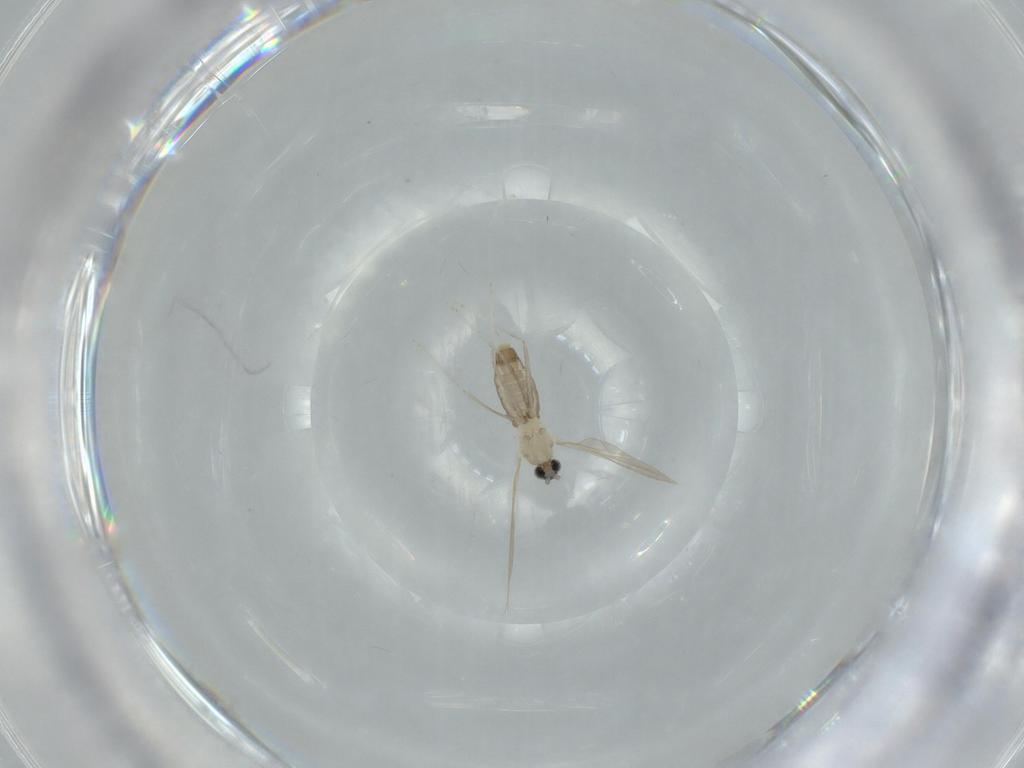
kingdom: Animalia
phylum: Arthropoda
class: Insecta
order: Diptera
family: Cecidomyiidae
